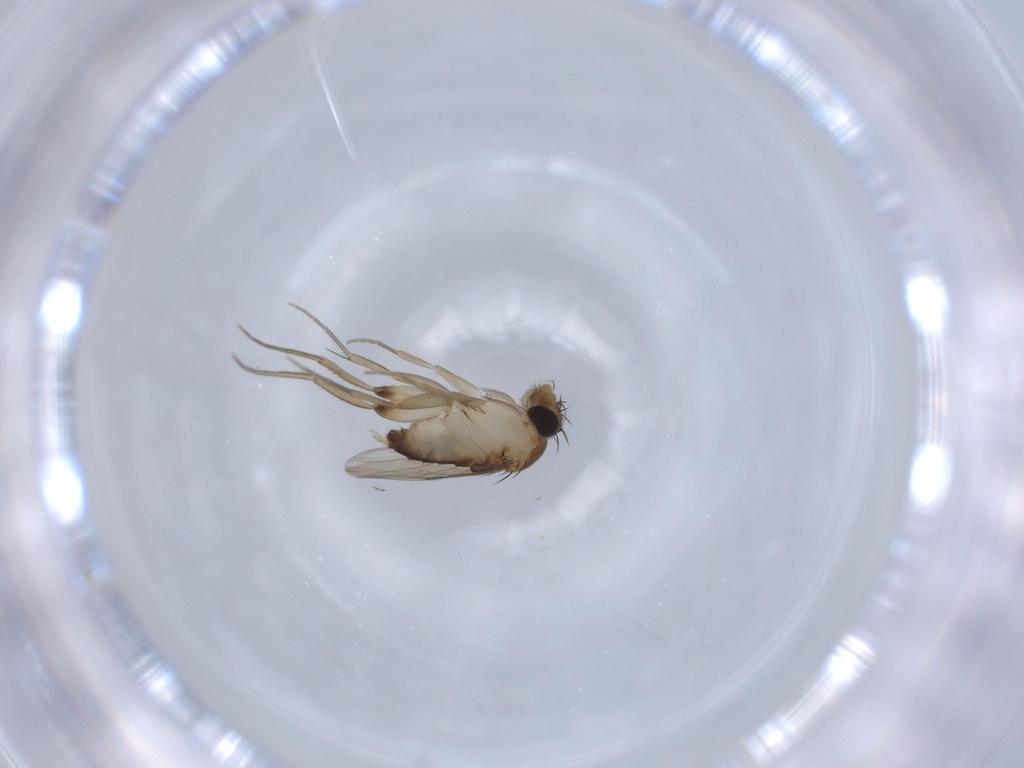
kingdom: Animalia
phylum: Arthropoda
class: Insecta
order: Diptera
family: Phoridae
